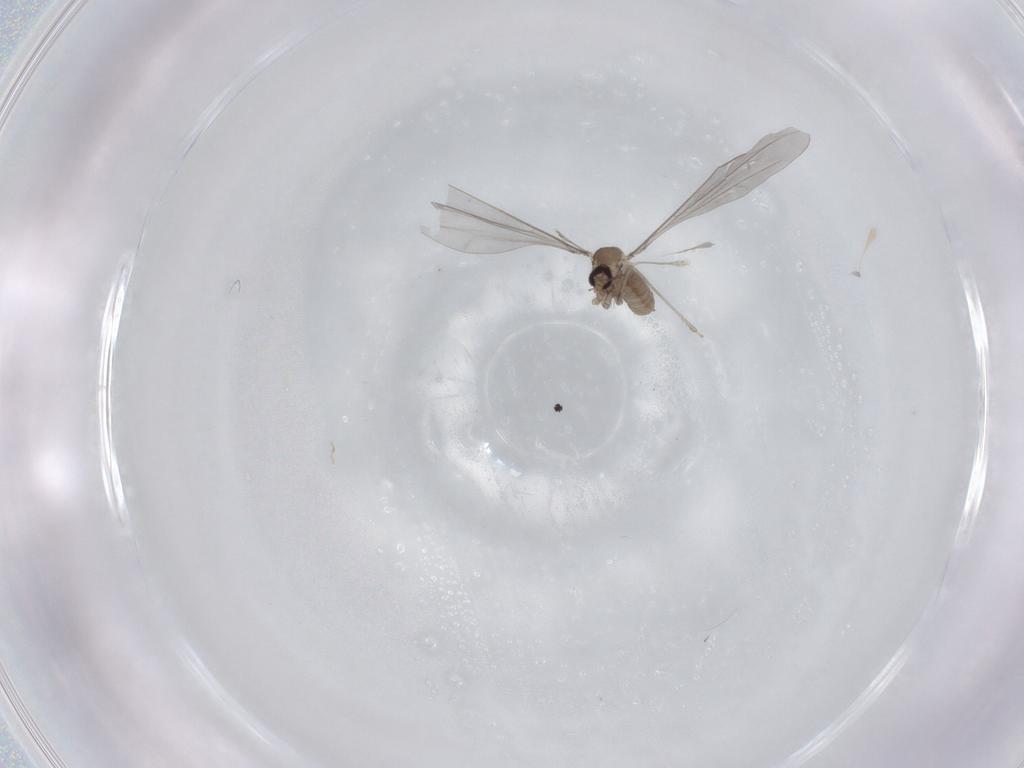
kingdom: Animalia
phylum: Arthropoda
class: Insecta
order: Diptera
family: Cecidomyiidae
